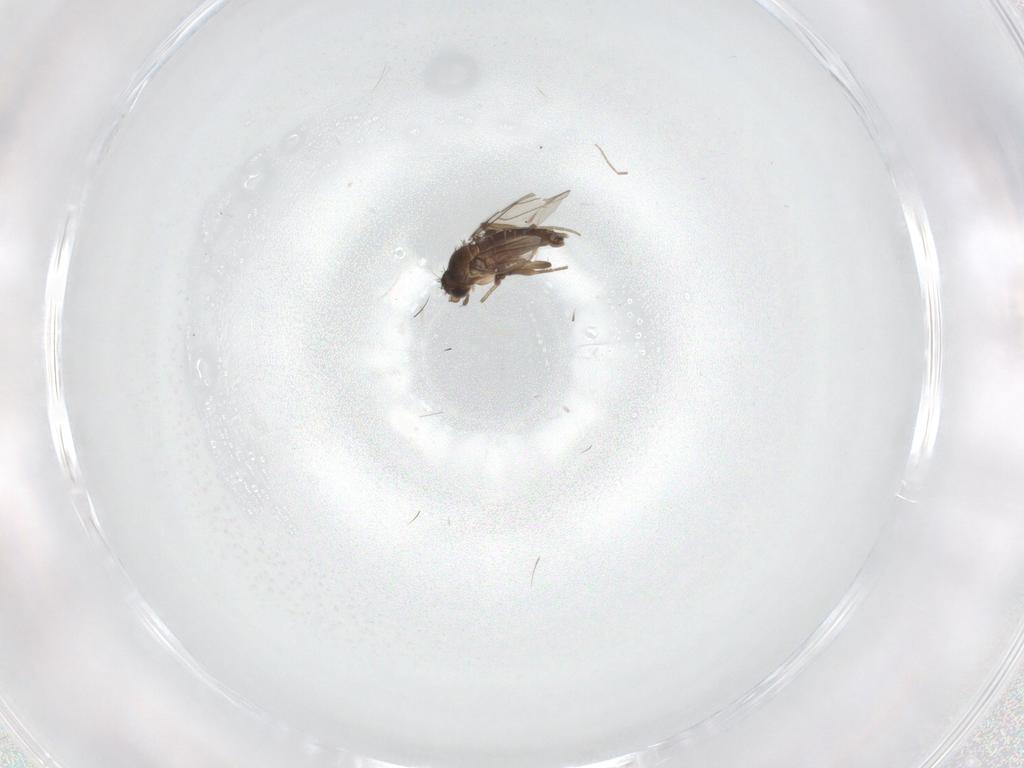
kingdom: Animalia
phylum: Arthropoda
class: Insecta
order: Diptera
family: Phoridae
